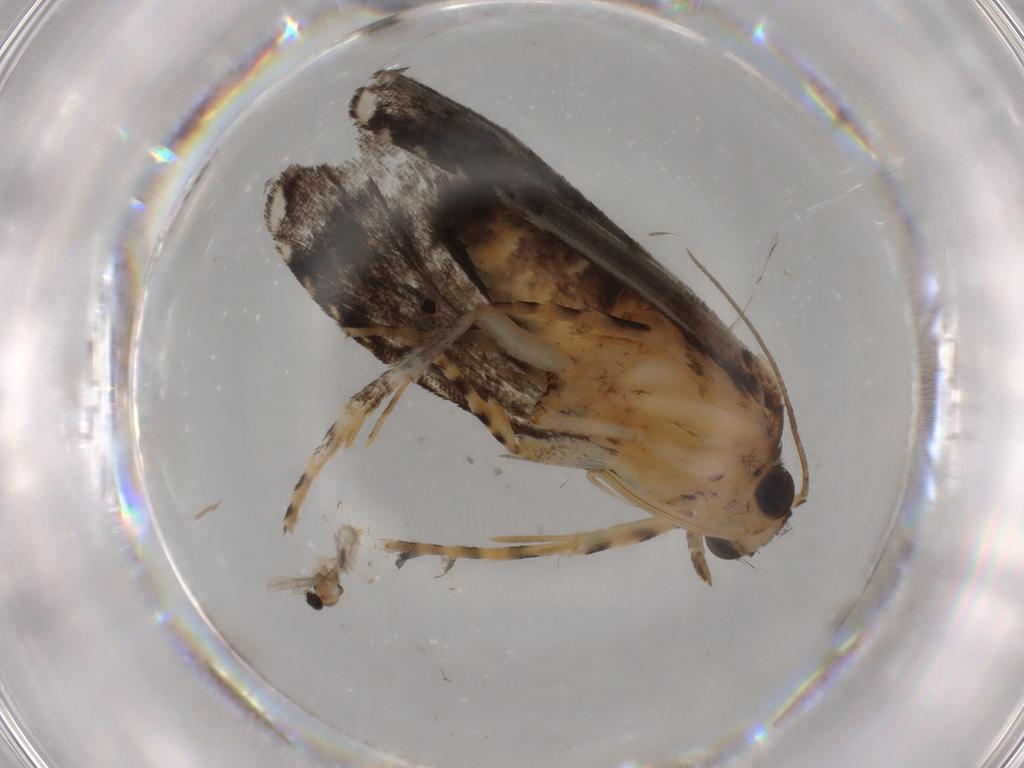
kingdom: Animalia
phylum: Arthropoda
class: Insecta
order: Lepidoptera
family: Immidae
